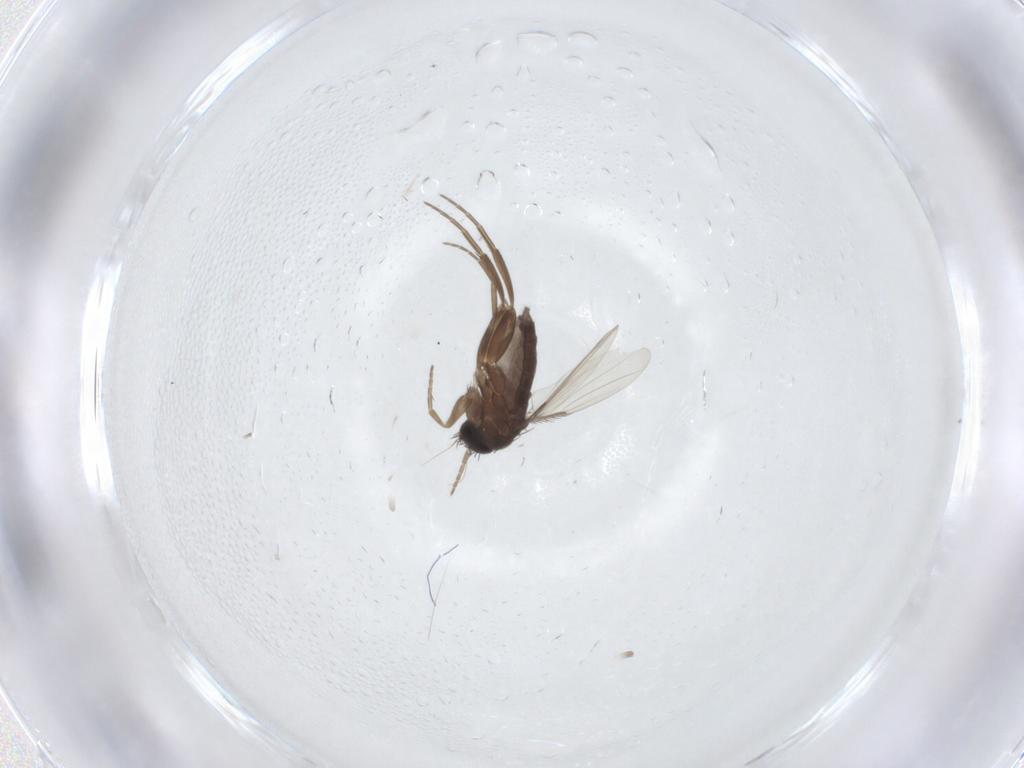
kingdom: Animalia
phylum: Arthropoda
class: Insecta
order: Diptera
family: Phoridae
